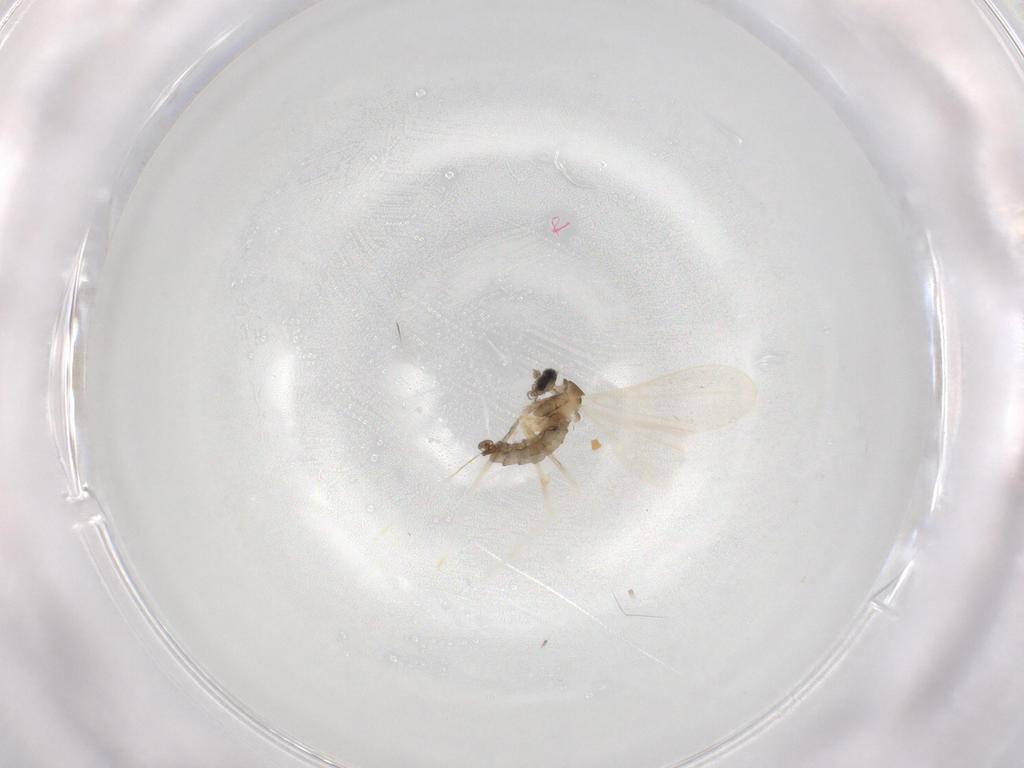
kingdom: Animalia
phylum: Arthropoda
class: Insecta
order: Diptera
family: Cecidomyiidae
